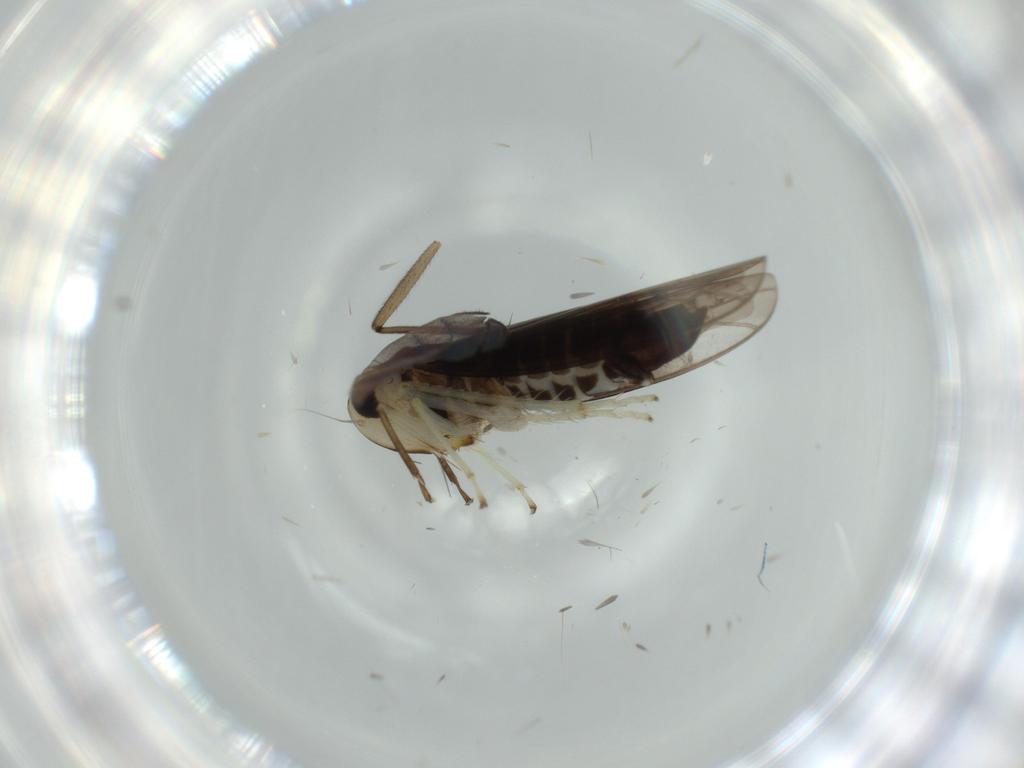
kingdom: Animalia
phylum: Arthropoda
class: Insecta
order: Hemiptera
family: Cicadellidae
